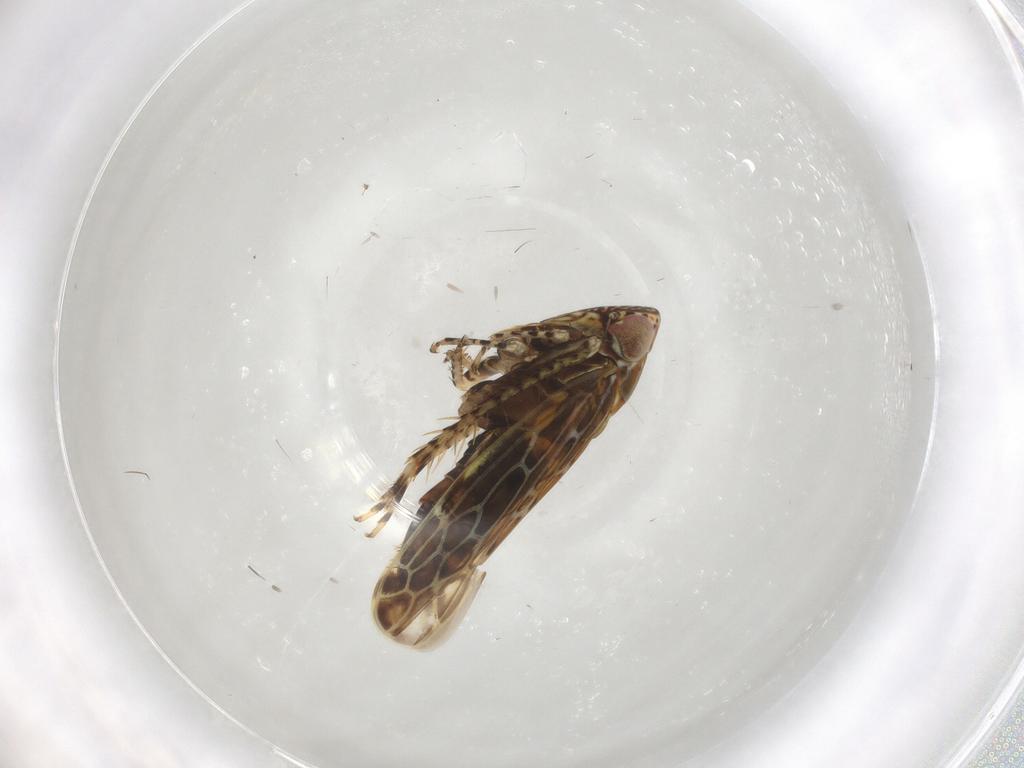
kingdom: Animalia
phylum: Arthropoda
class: Insecta
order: Hemiptera
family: Cicadellidae
